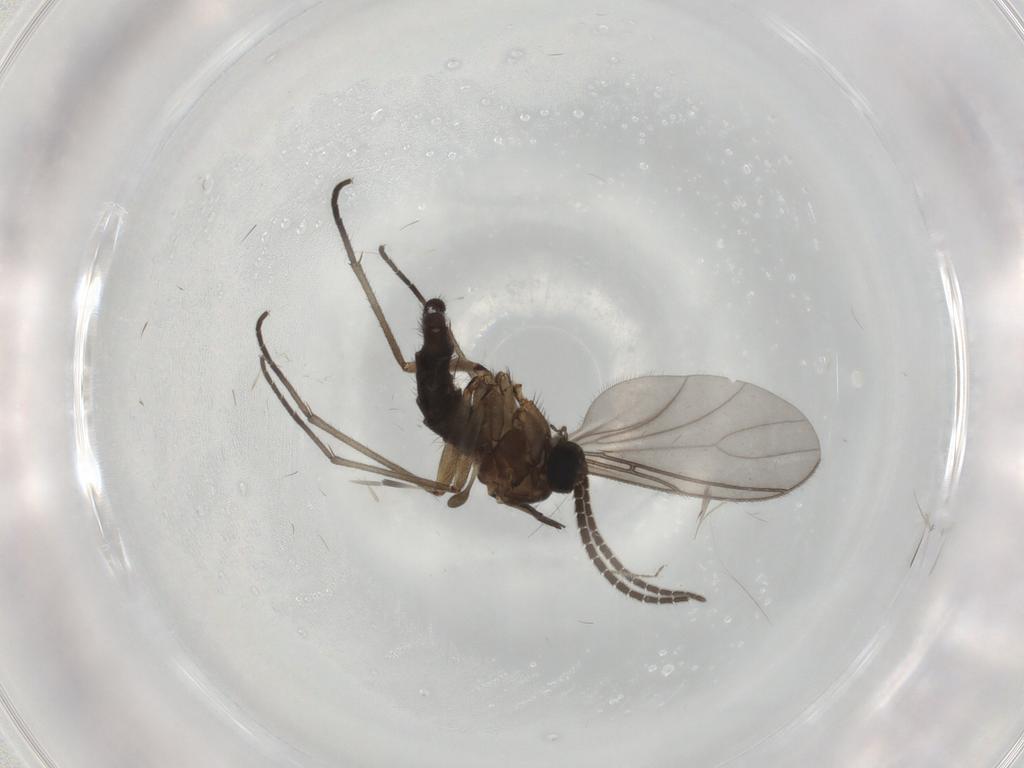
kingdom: Animalia
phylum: Arthropoda
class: Insecta
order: Diptera
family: Sciaridae
